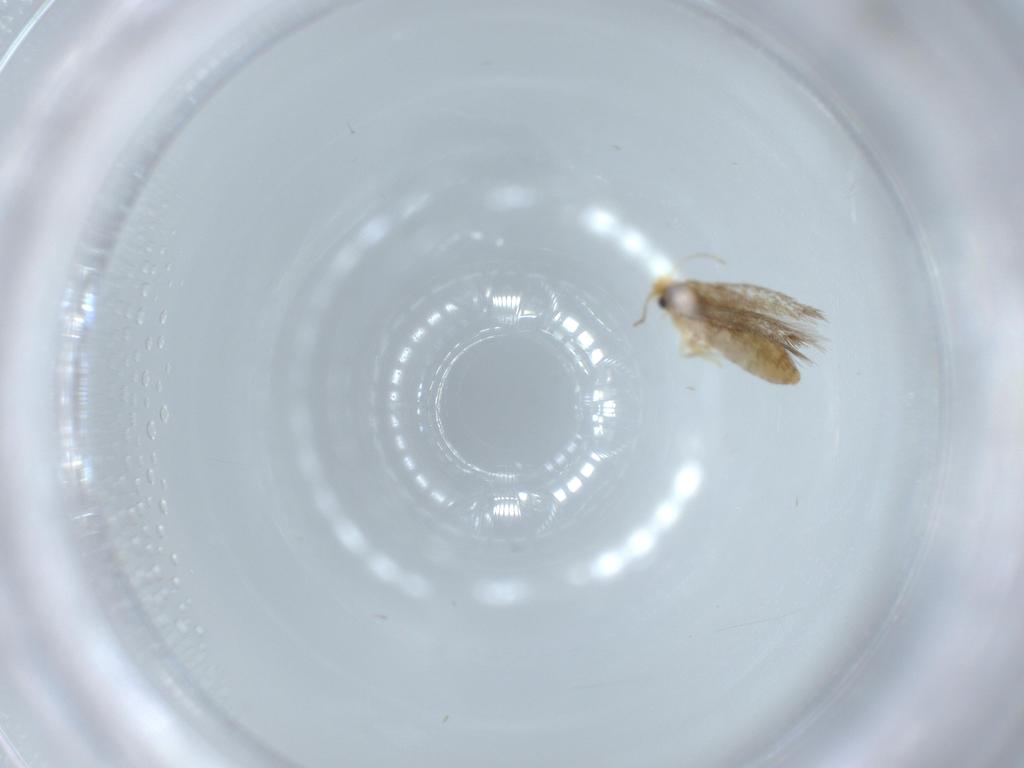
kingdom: Animalia
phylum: Arthropoda
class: Insecta
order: Lepidoptera
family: Nepticulidae
